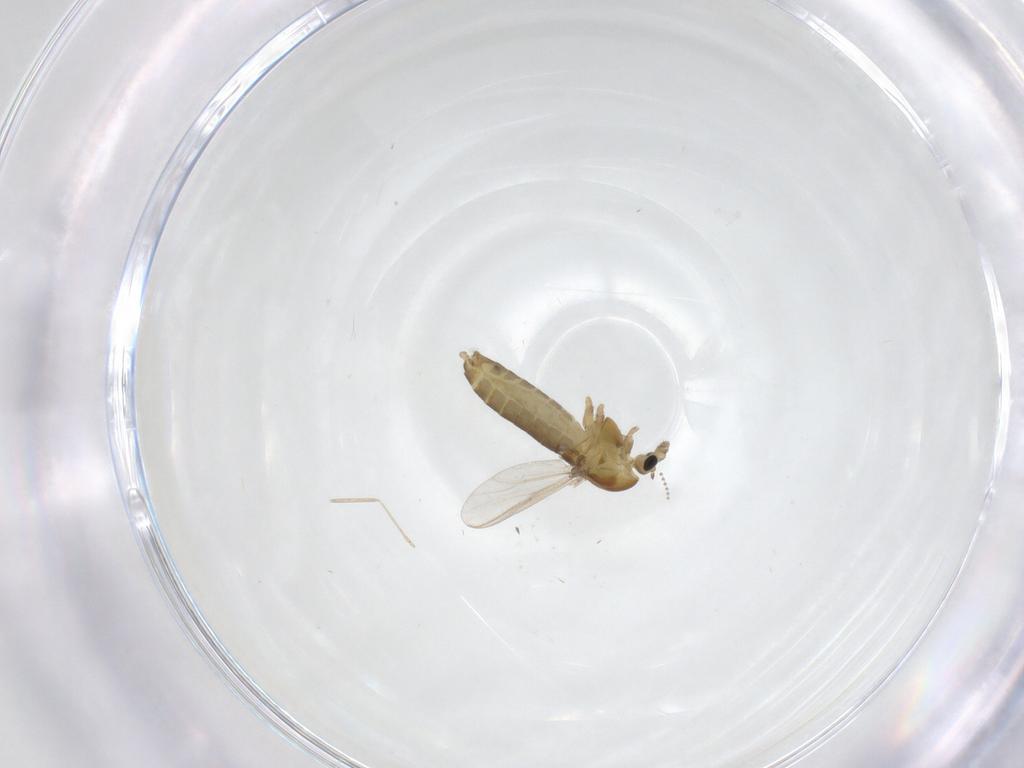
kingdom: Animalia
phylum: Arthropoda
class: Insecta
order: Diptera
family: Chironomidae
